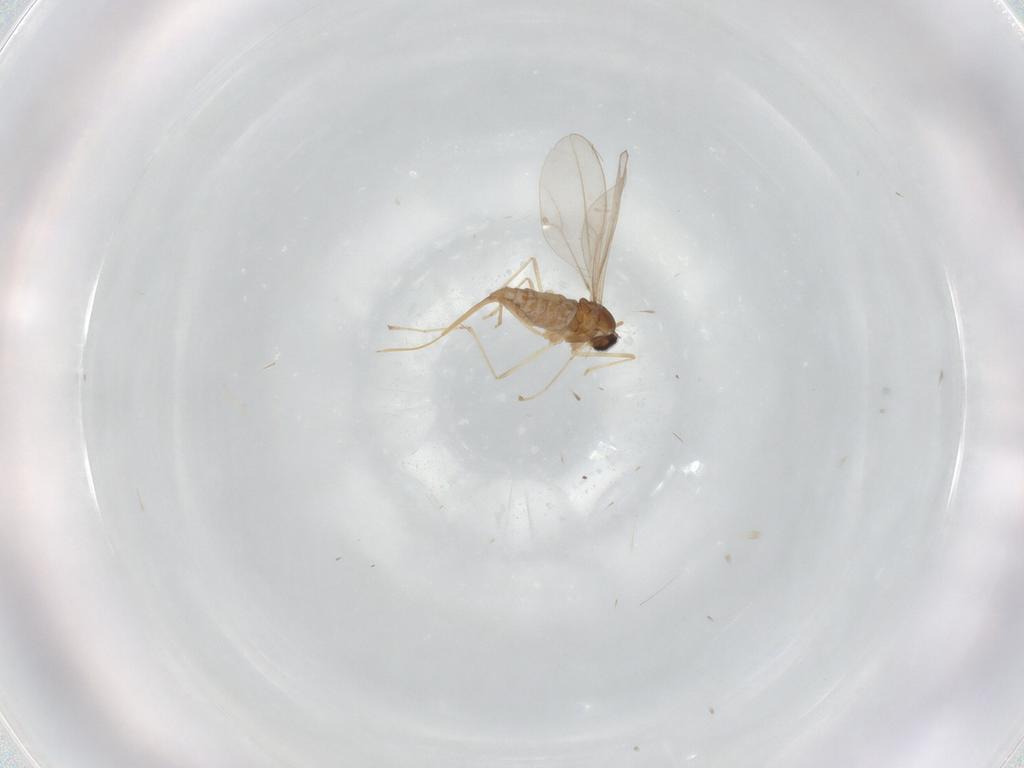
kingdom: Animalia
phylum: Arthropoda
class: Insecta
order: Diptera
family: Cecidomyiidae
